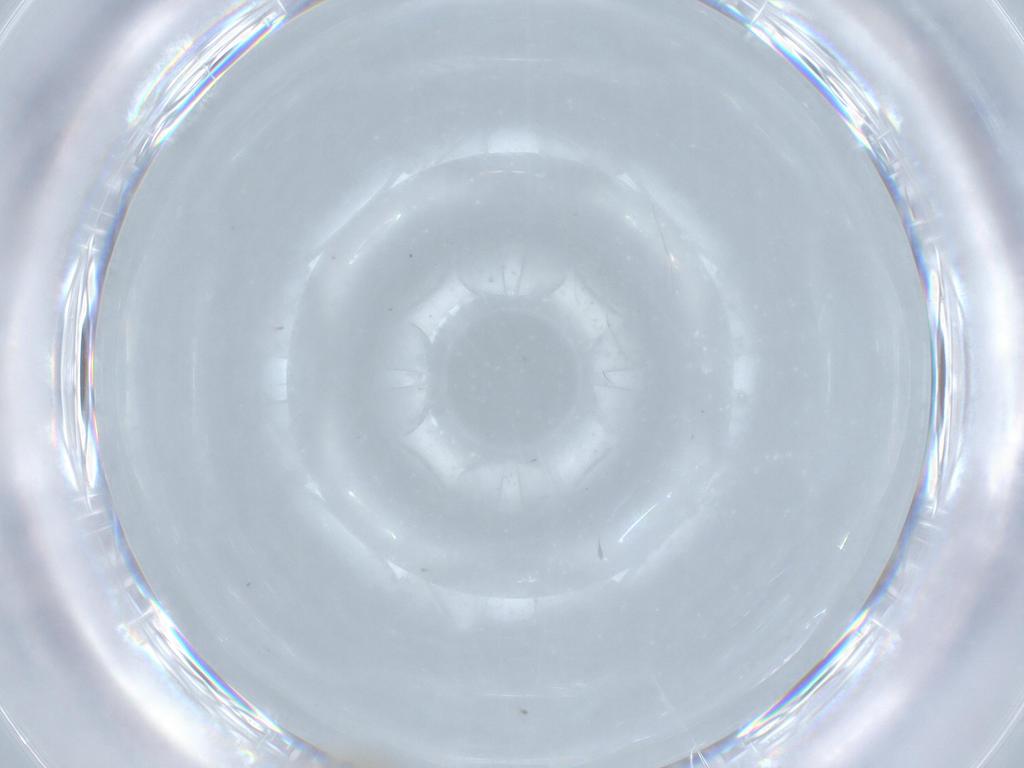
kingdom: Animalia
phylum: Arthropoda
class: Insecta
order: Diptera
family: Cecidomyiidae
